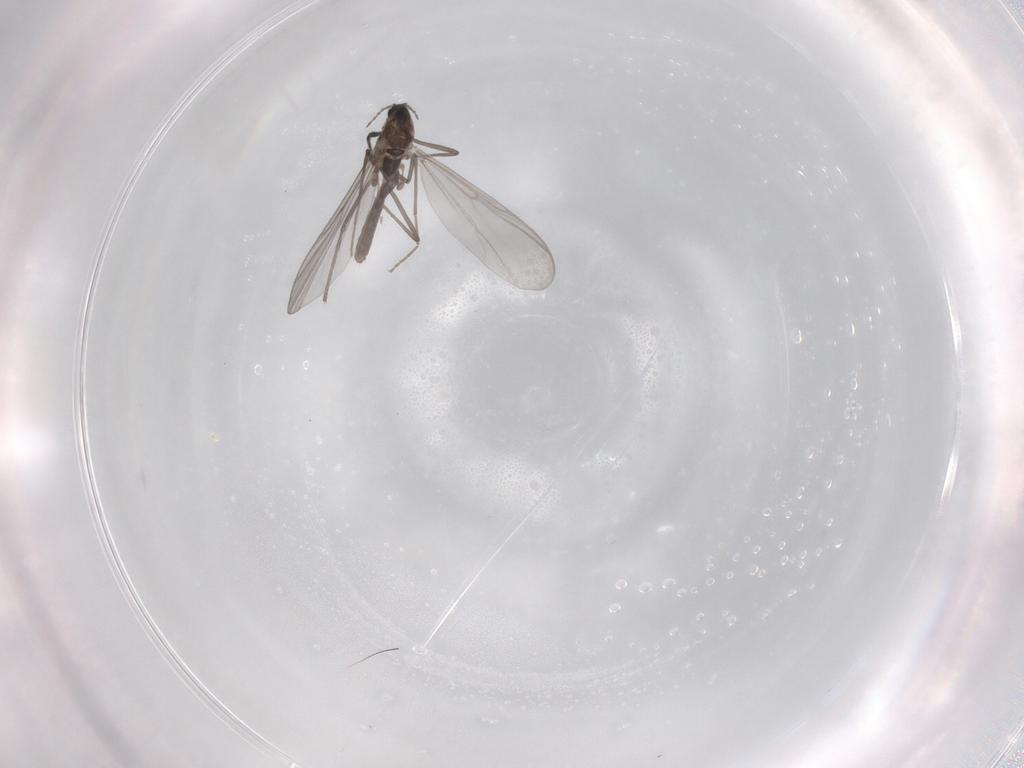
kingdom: Animalia
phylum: Arthropoda
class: Insecta
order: Diptera
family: Chironomidae
